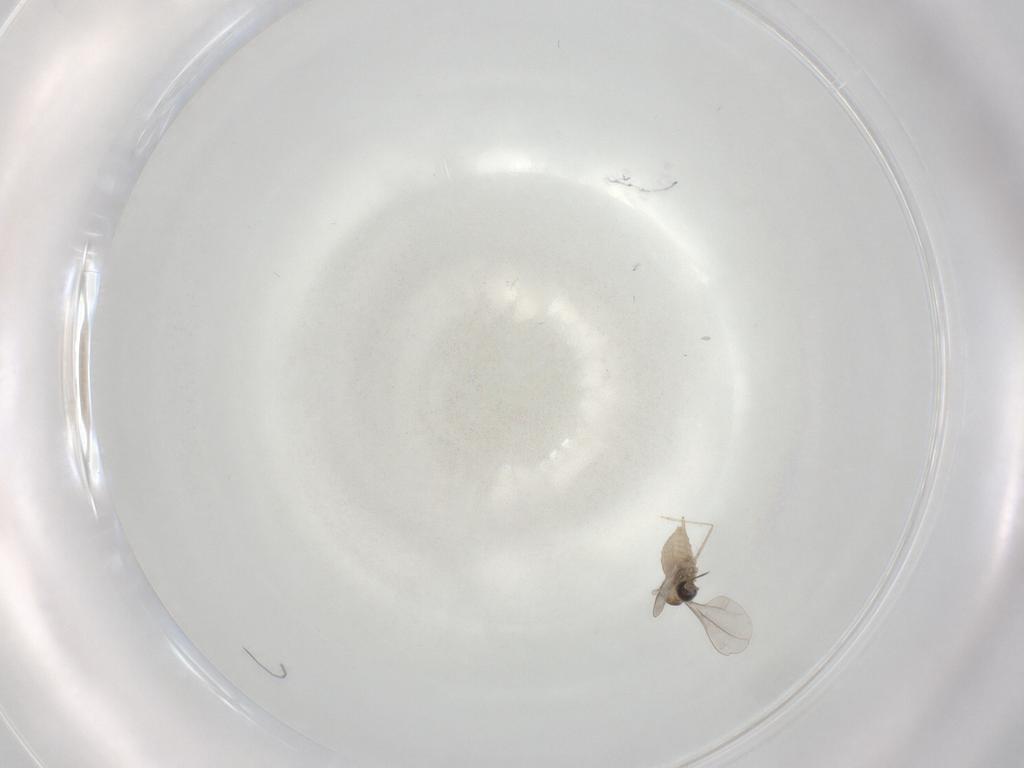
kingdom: Animalia
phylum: Arthropoda
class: Insecta
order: Diptera
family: Cecidomyiidae
